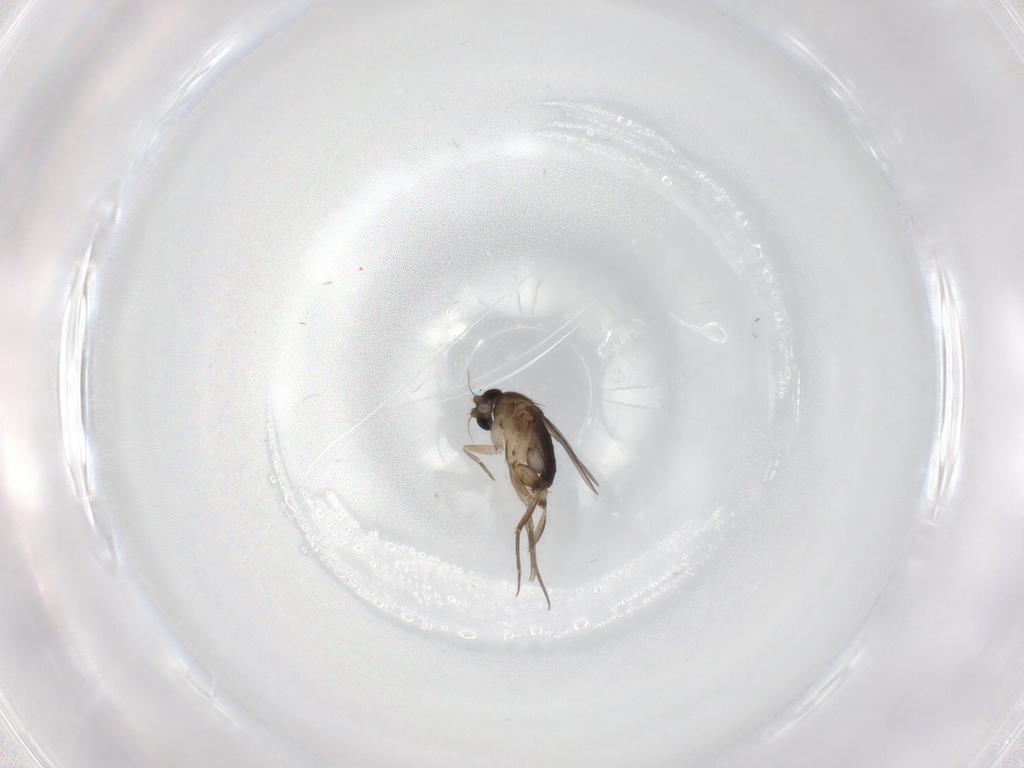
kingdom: Animalia
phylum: Arthropoda
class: Insecta
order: Diptera
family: Phoridae
